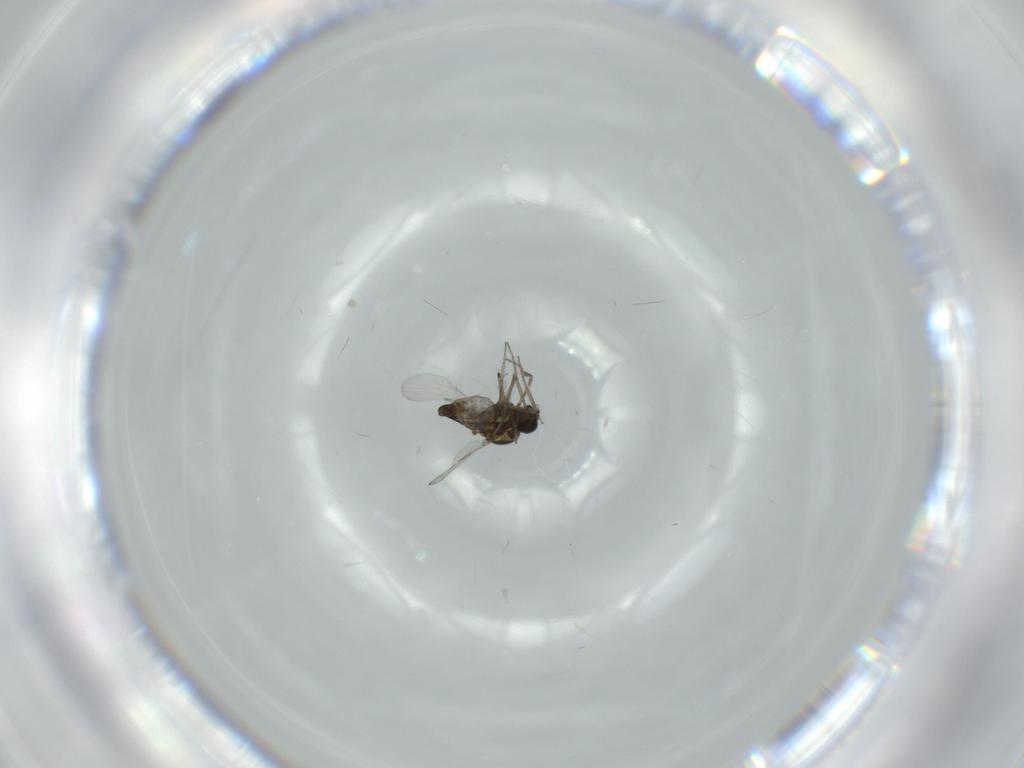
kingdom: Animalia
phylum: Arthropoda
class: Insecta
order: Diptera
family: Ceratopogonidae
